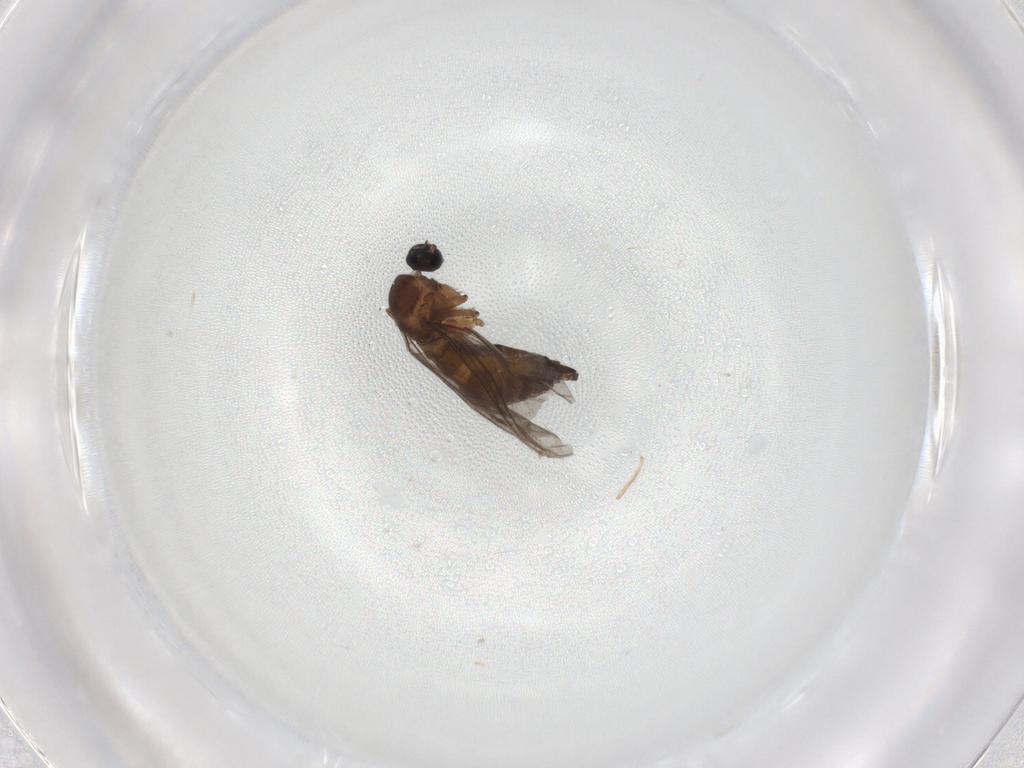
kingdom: Animalia
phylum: Arthropoda
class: Insecta
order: Diptera
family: Sciaridae
